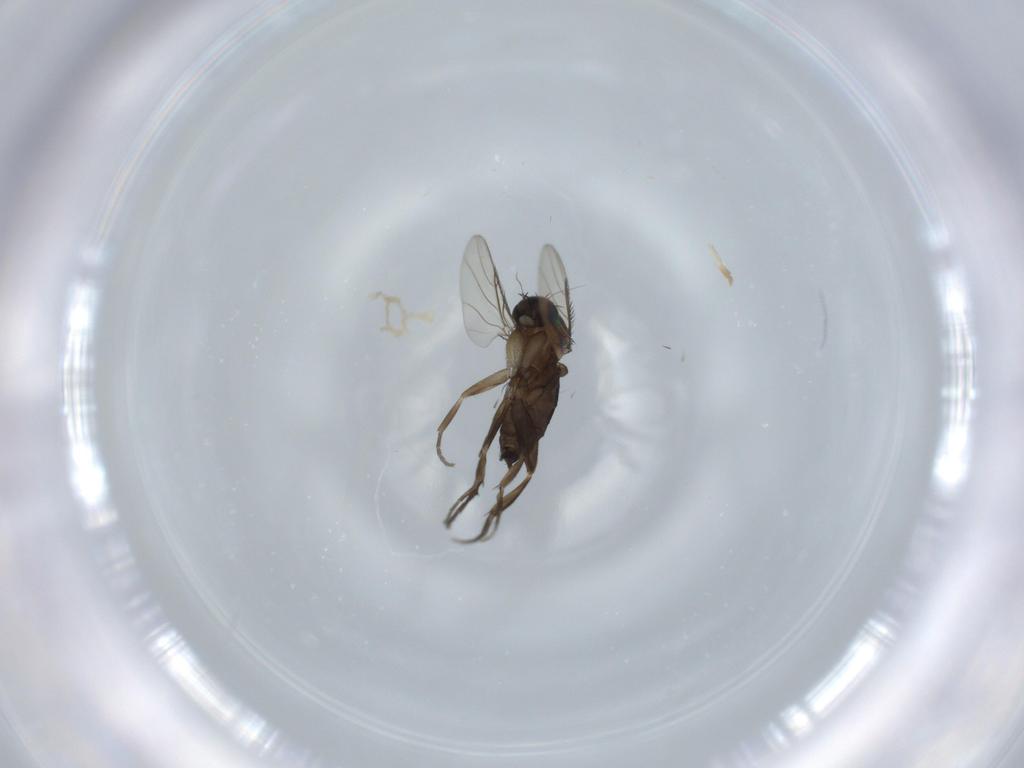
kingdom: Animalia
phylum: Arthropoda
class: Insecta
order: Diptera
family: Phoridae
